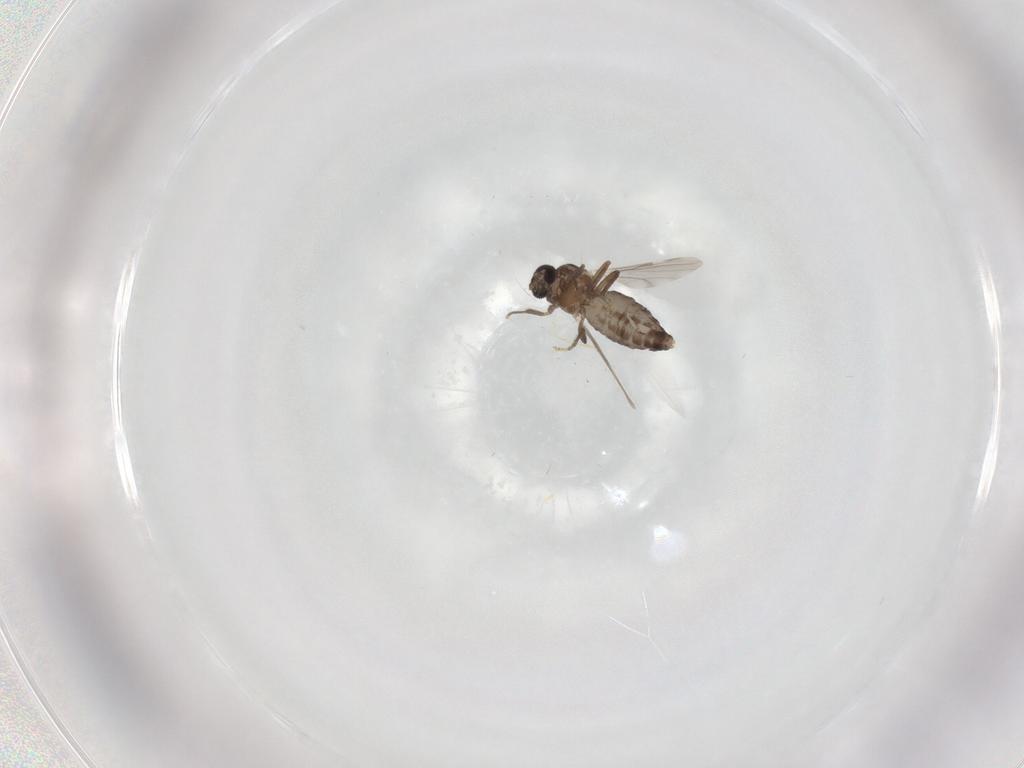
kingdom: Animalia
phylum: Arthropoda
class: Insecta
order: Diptera
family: Ceratopogonidae
